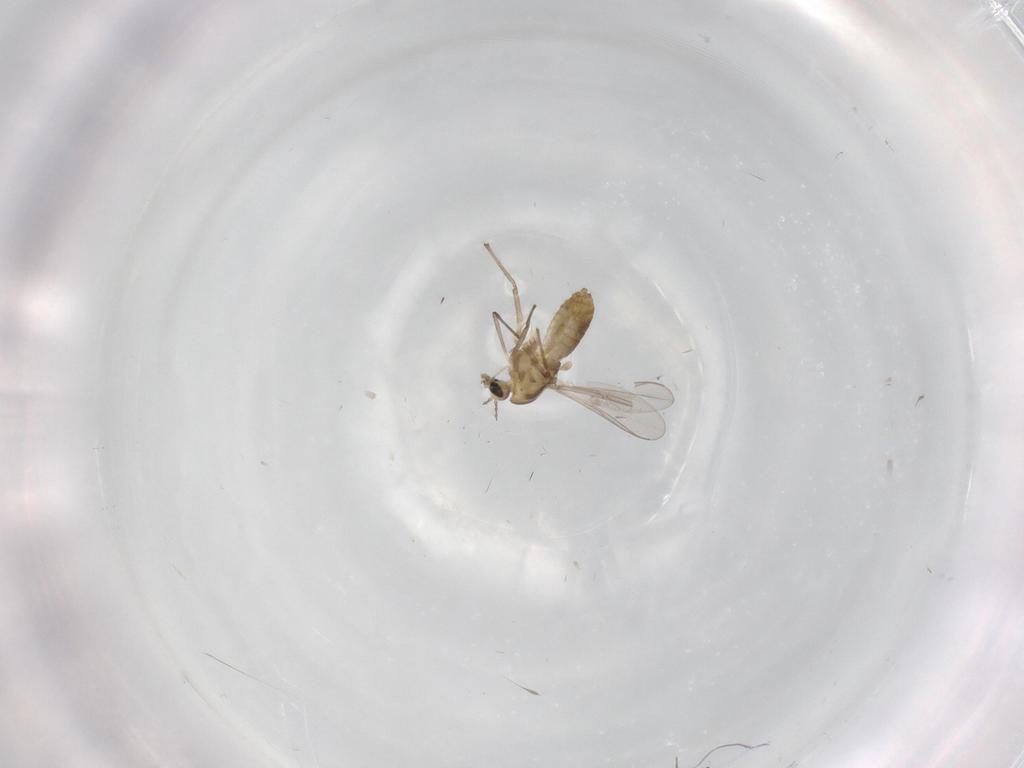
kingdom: Animalia
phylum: Arthropoda
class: Insecta
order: Diptera
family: Chironomidae
